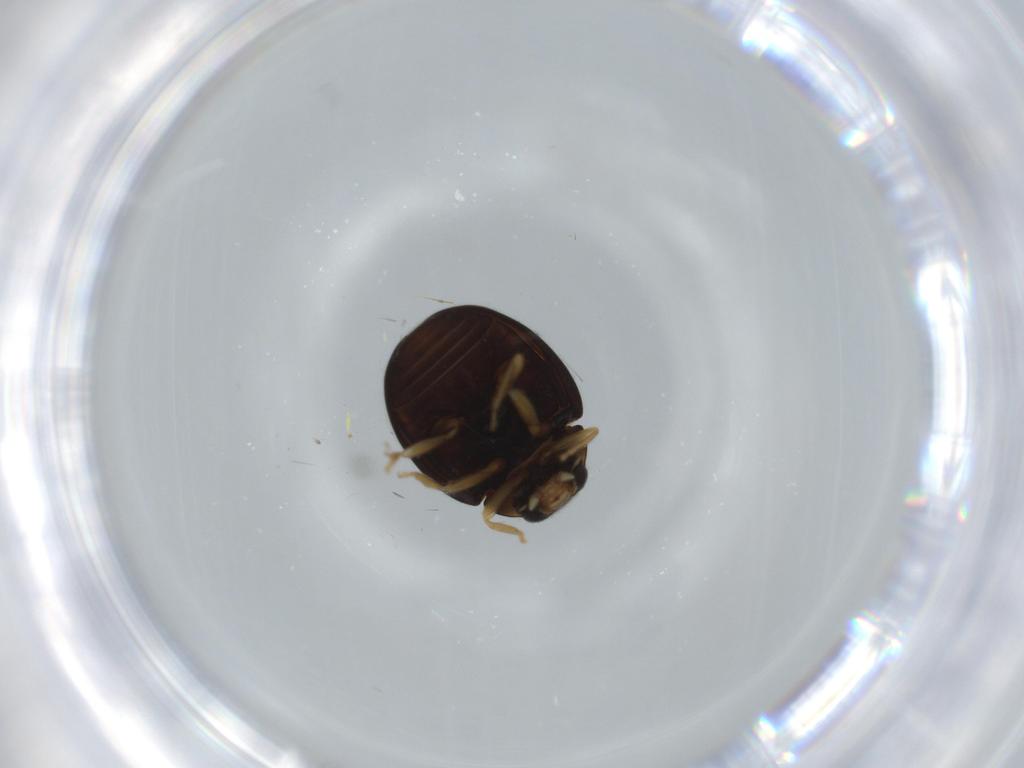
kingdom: Animalia
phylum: Arthropoda
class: Insecta
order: Coleoptera
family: Coccinellidae
